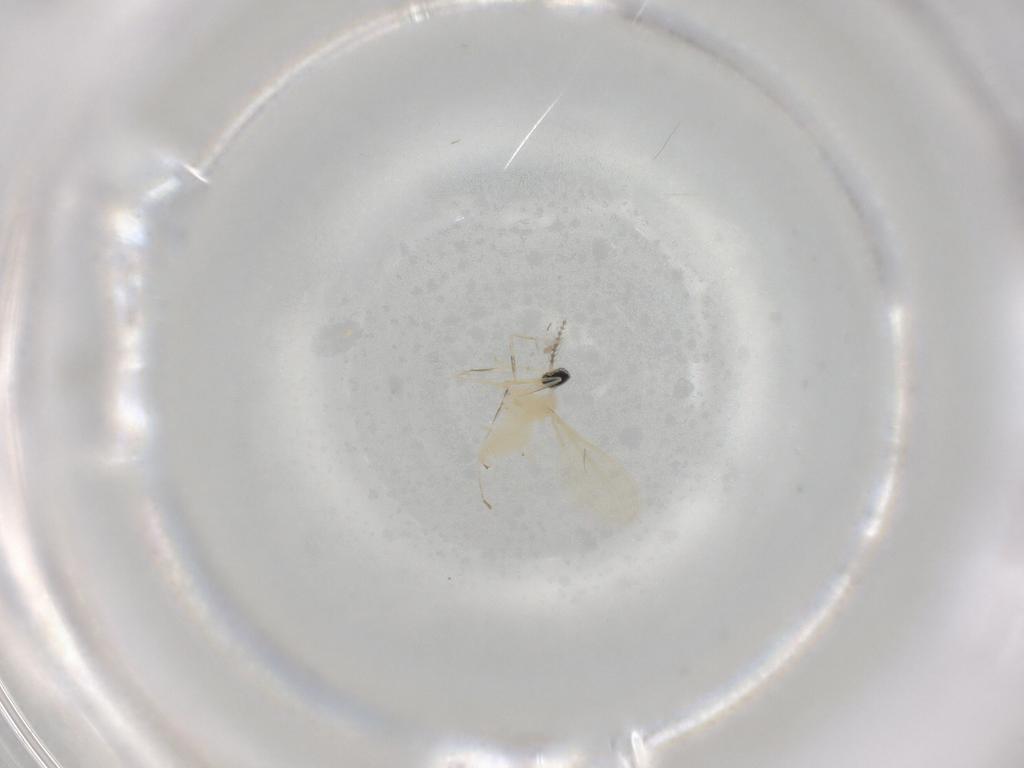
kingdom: Animalia
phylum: Arthropoda
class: Insecta
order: Diptera
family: Cecidomyiidae
